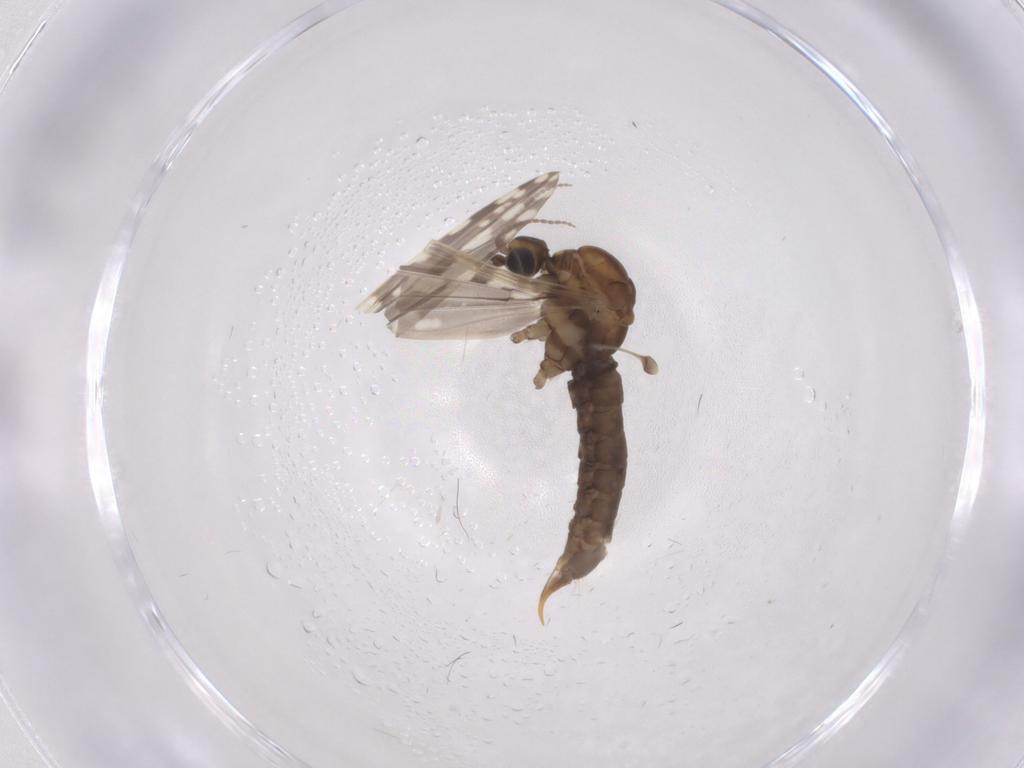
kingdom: Animalia
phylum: Arthropoda
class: Insecta
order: Diptera
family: Limoniidae
